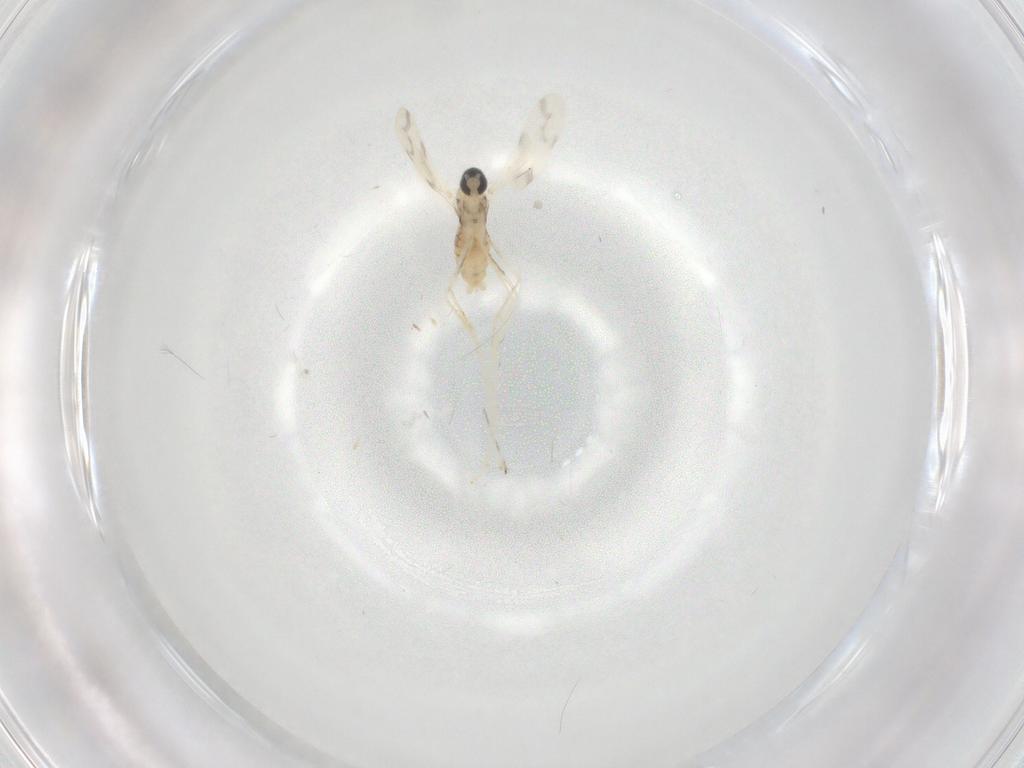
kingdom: Animalia
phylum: Arthropoda
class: Insecta
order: Diptera
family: Cecidomyiidae
